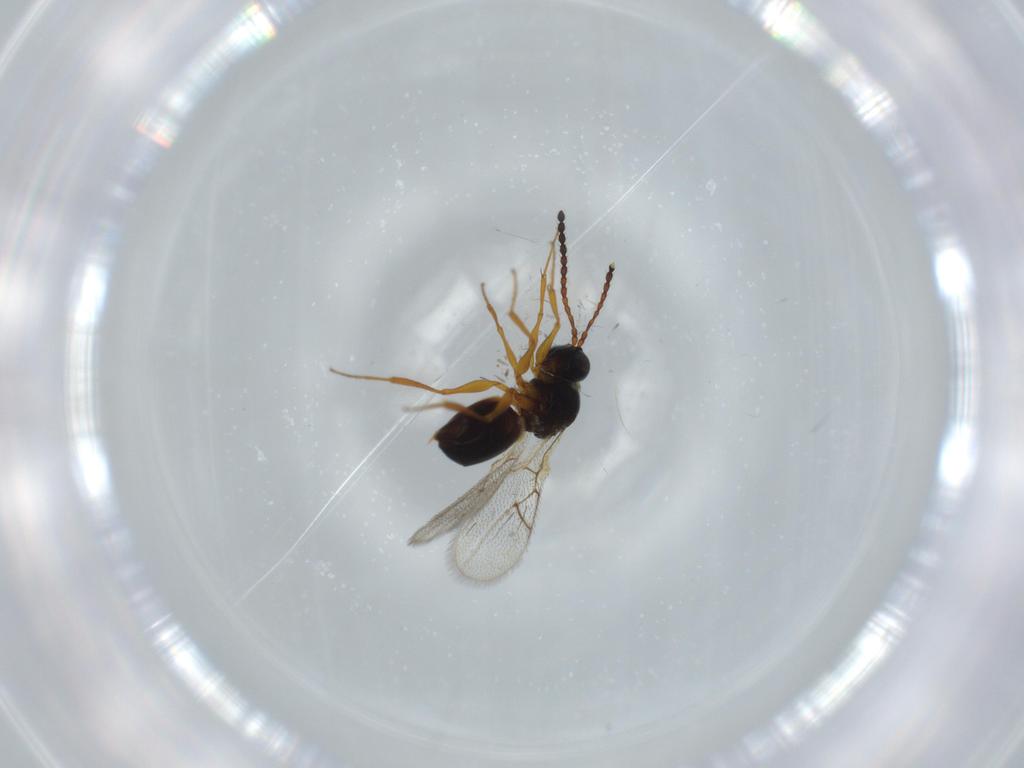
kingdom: Animalia
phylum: Arthropoda
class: Insecta
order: Hymenoptera
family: Figitidae
